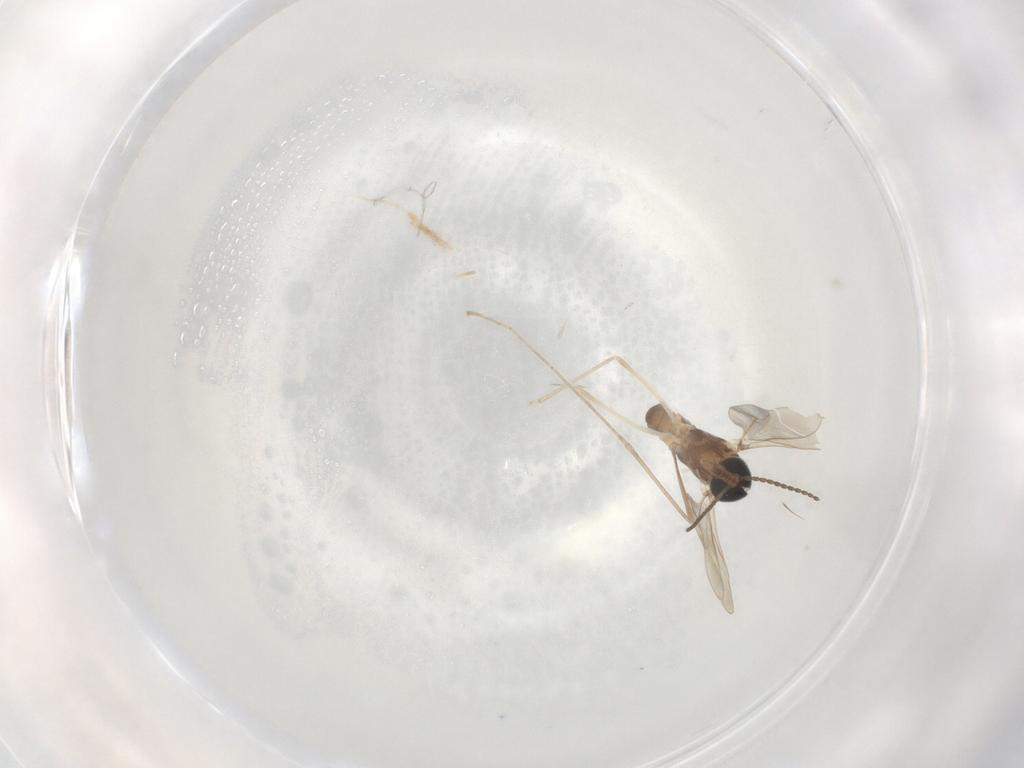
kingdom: Animalia
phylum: Arthropoda
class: Insecta
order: Diptera
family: Cecidomyiidae
